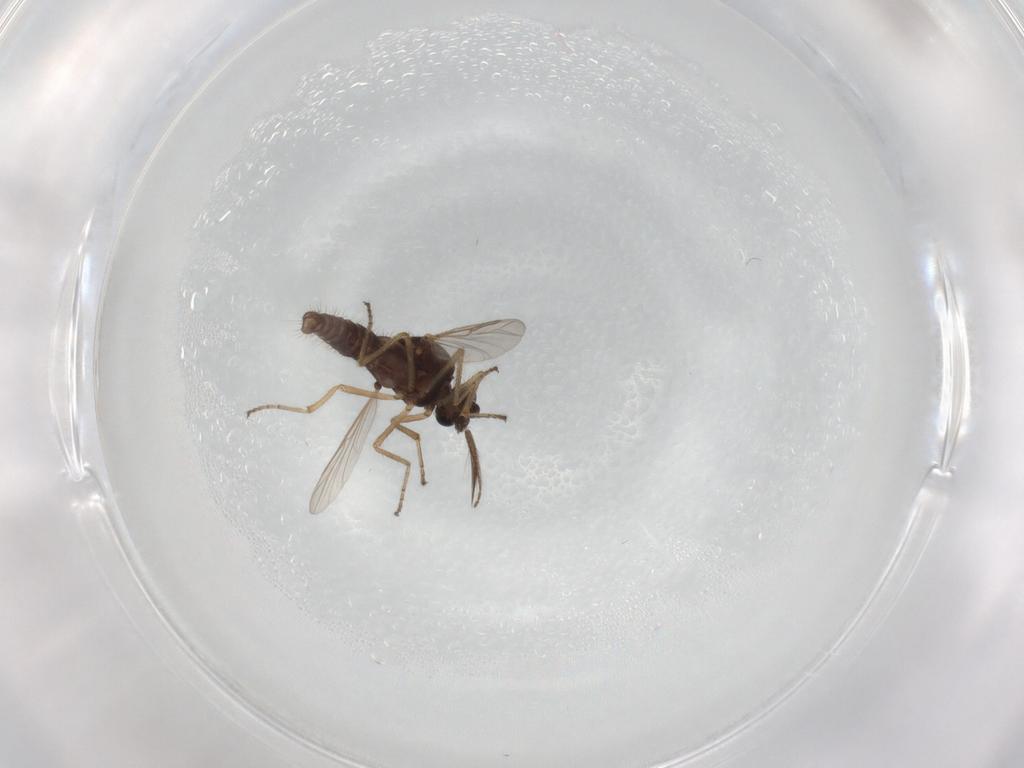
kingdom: Animalia
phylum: Arthropoda
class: Insecta
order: Diptera
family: Ceratopogonidae
